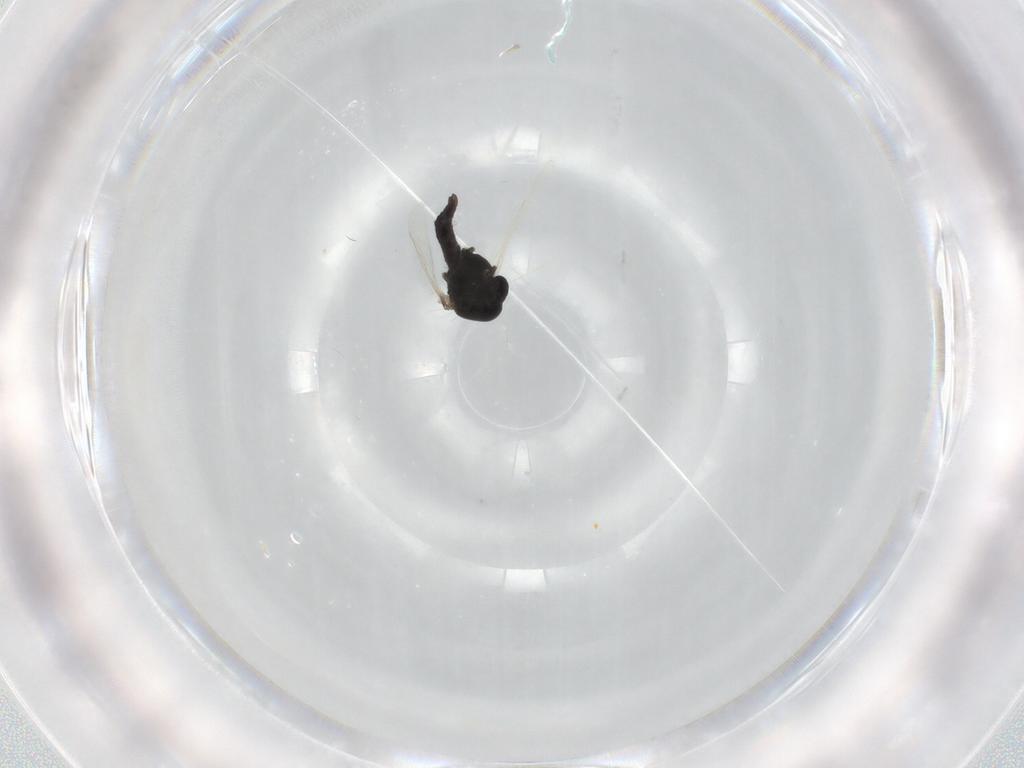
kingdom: Animalia
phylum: Arthropoda
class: Insecta
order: Diptera
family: Chironomidae
